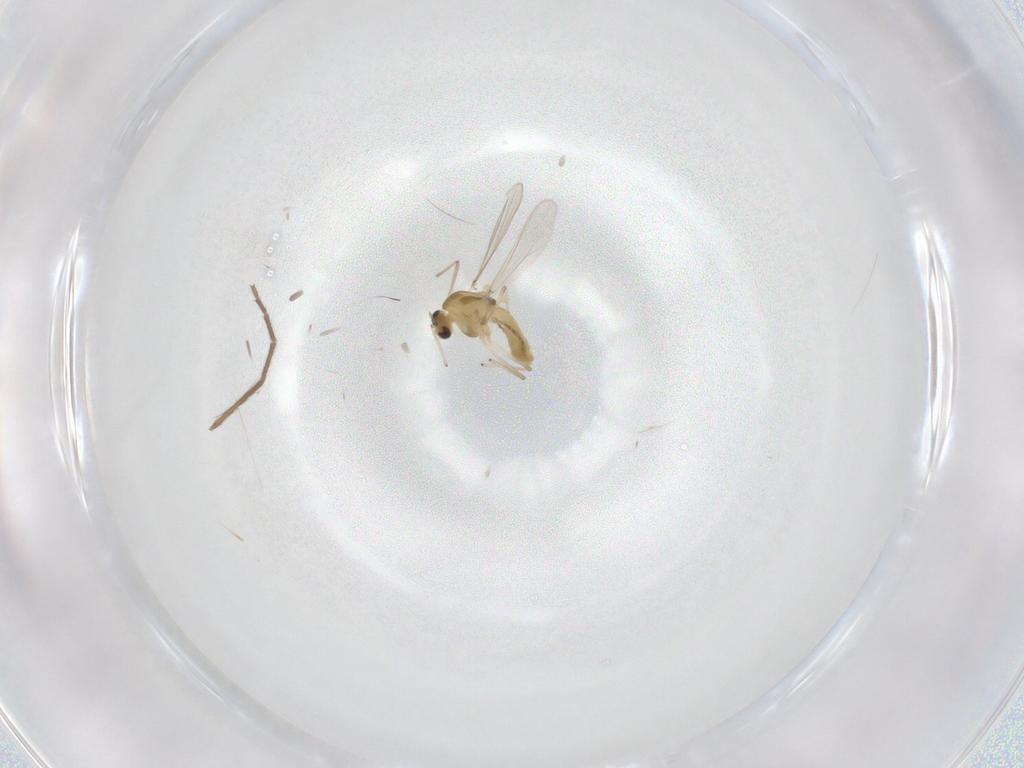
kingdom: Animalia
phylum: Arthropoda
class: Insecta
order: Diptera
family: Chironomidae
